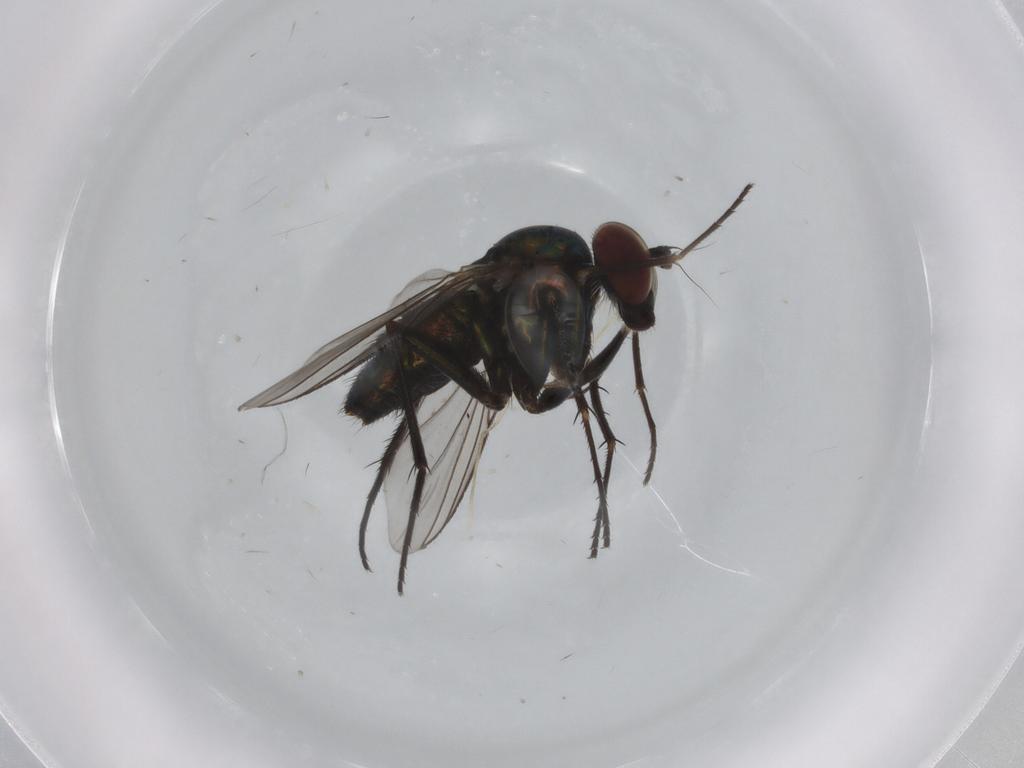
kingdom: Animalia
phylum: Arthropoda
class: Insecta
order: Diptera
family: Dolichopodidae
